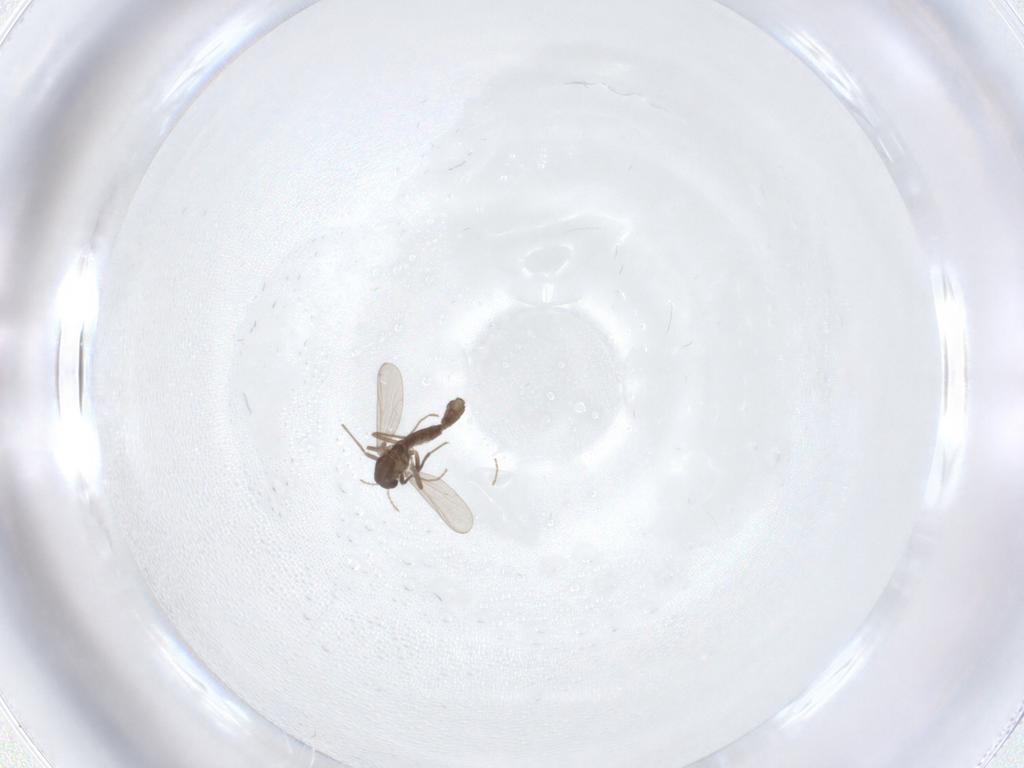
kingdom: Animalia
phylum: Arthropoda
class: Insecta
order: Diptera
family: Chironomidae
